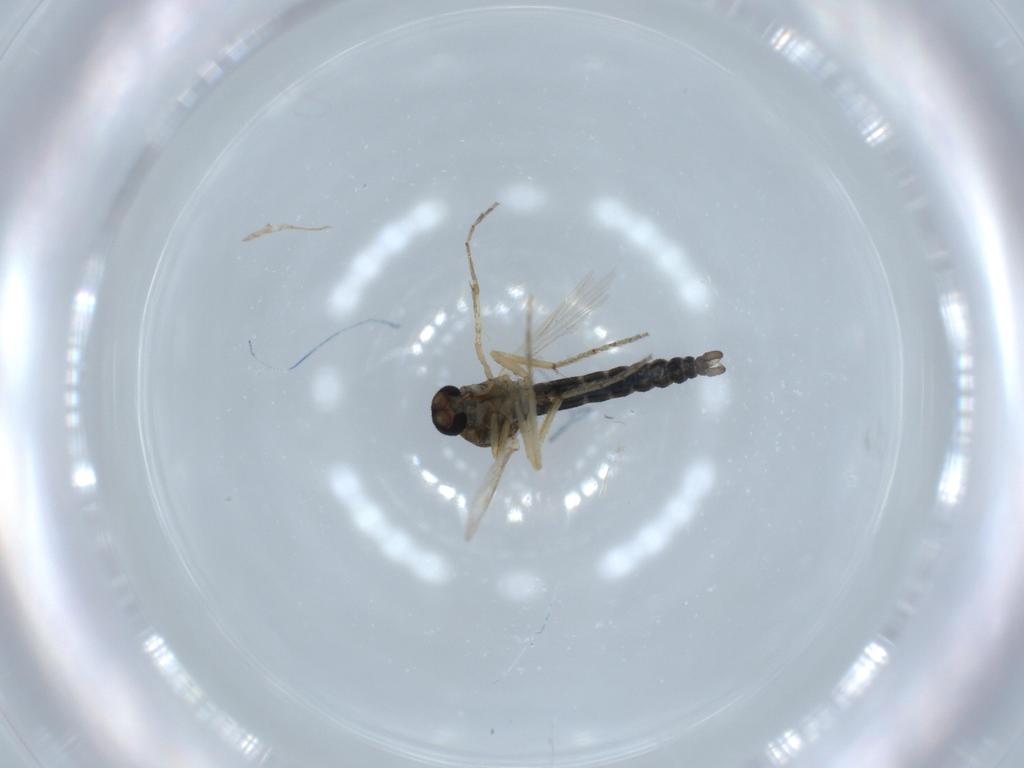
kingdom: Animalia
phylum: Arthropoda
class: Insecta
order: Diptera
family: Ceratopogonidae
